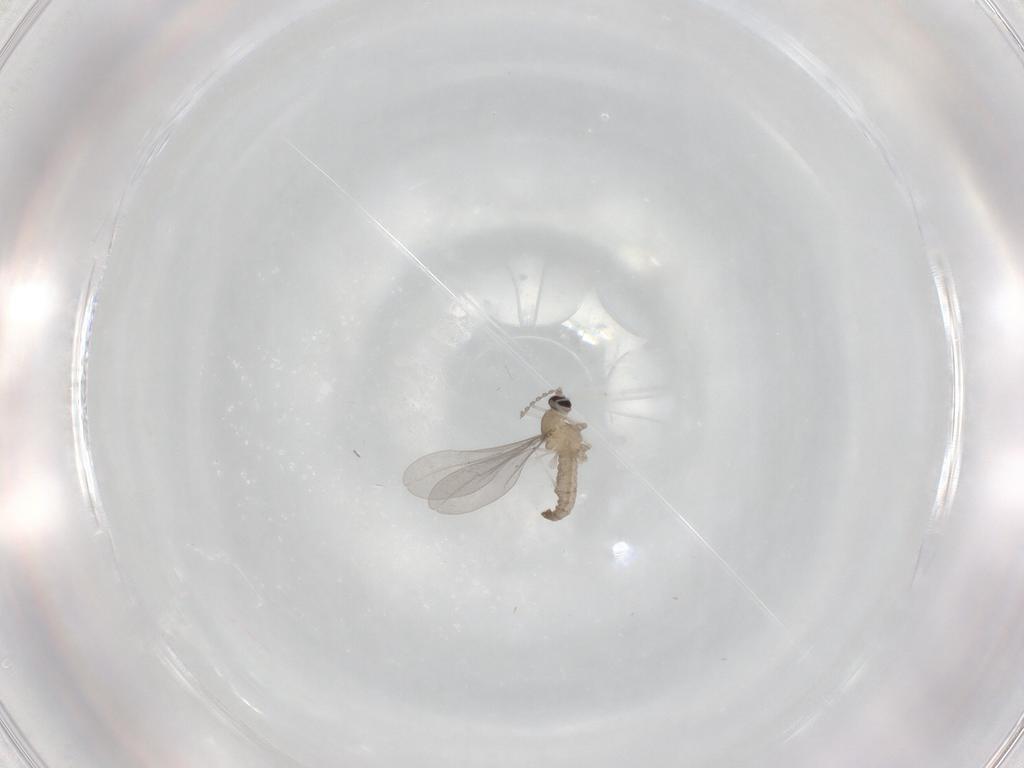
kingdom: Animalia
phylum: Arthropoda
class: Insecta
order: Diptera
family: Cecidomyiidae
